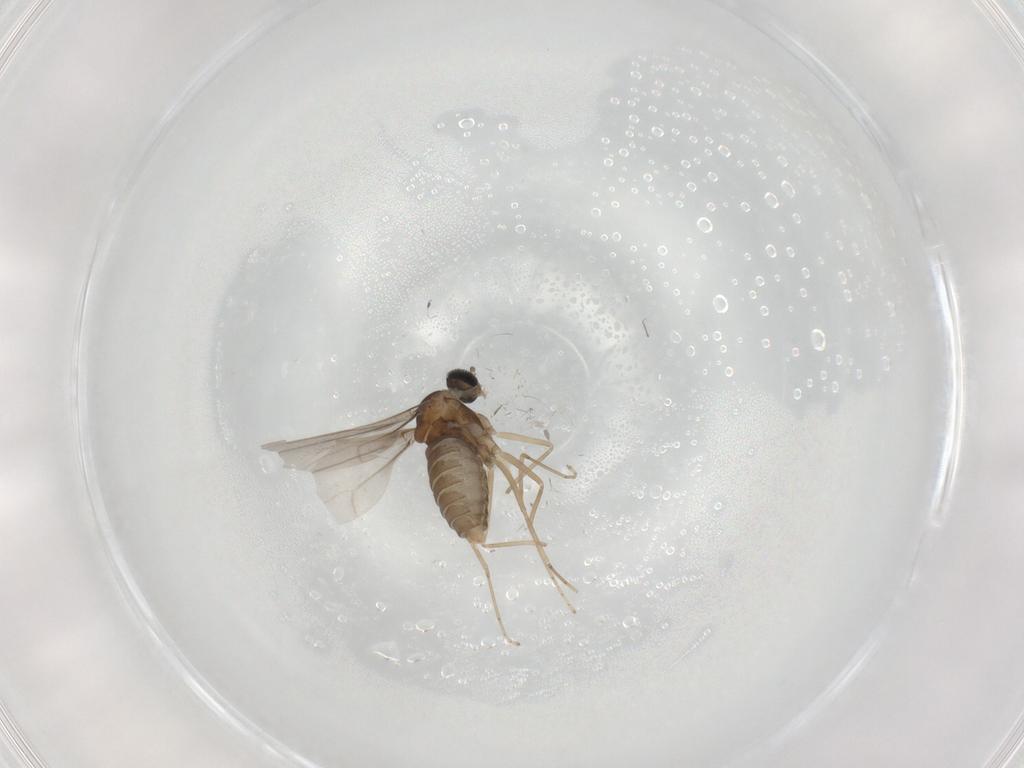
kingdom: Animalia
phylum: Arthropoda
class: Insecta
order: Diptera
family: Cecidomyiidae
